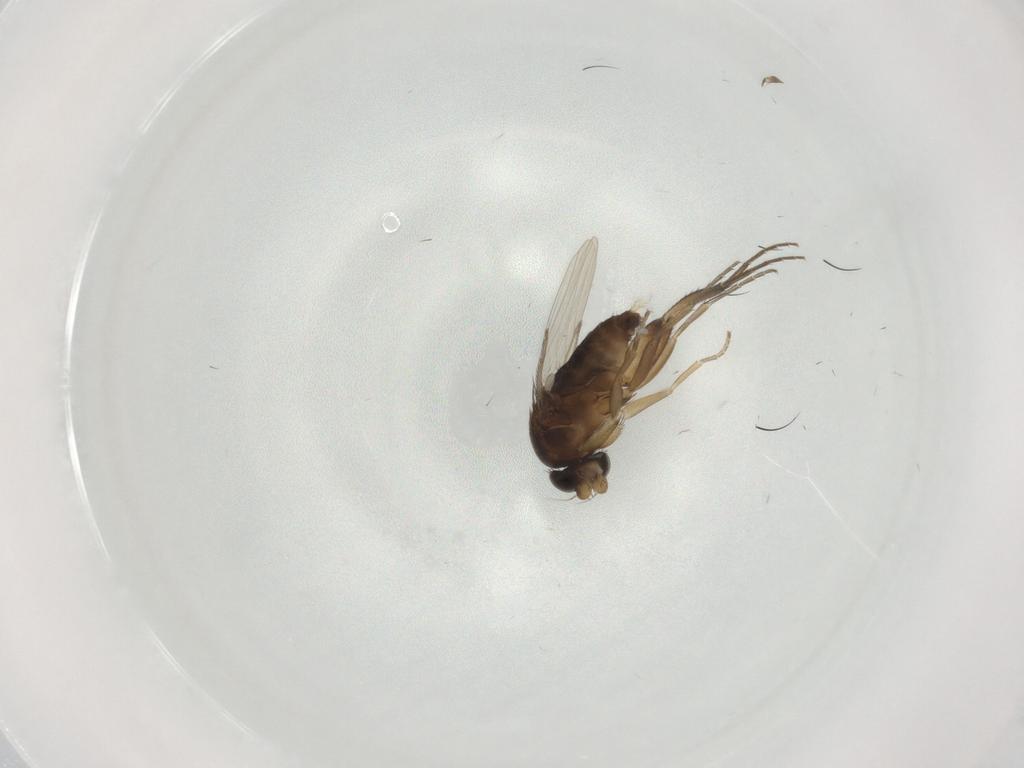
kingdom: Animalia
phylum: Arthropoda
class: Insecta
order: Diptera
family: Phoridae
